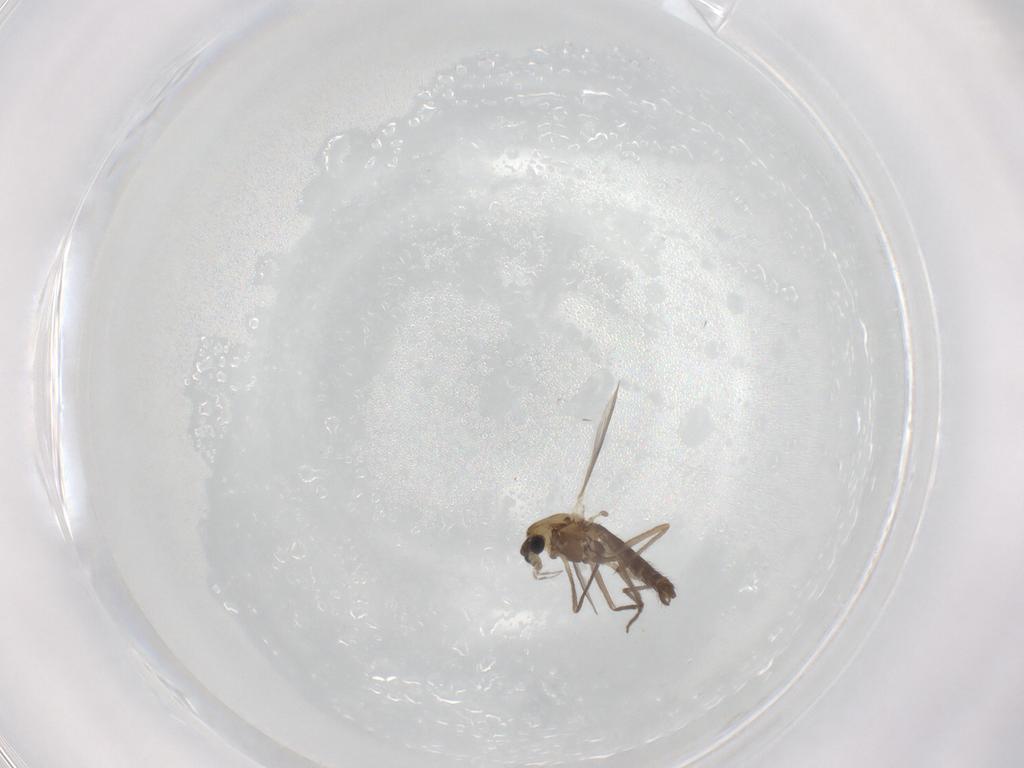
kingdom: Animalia
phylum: Arthropoda
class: Insecta
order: Diptera
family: Chironomidae
